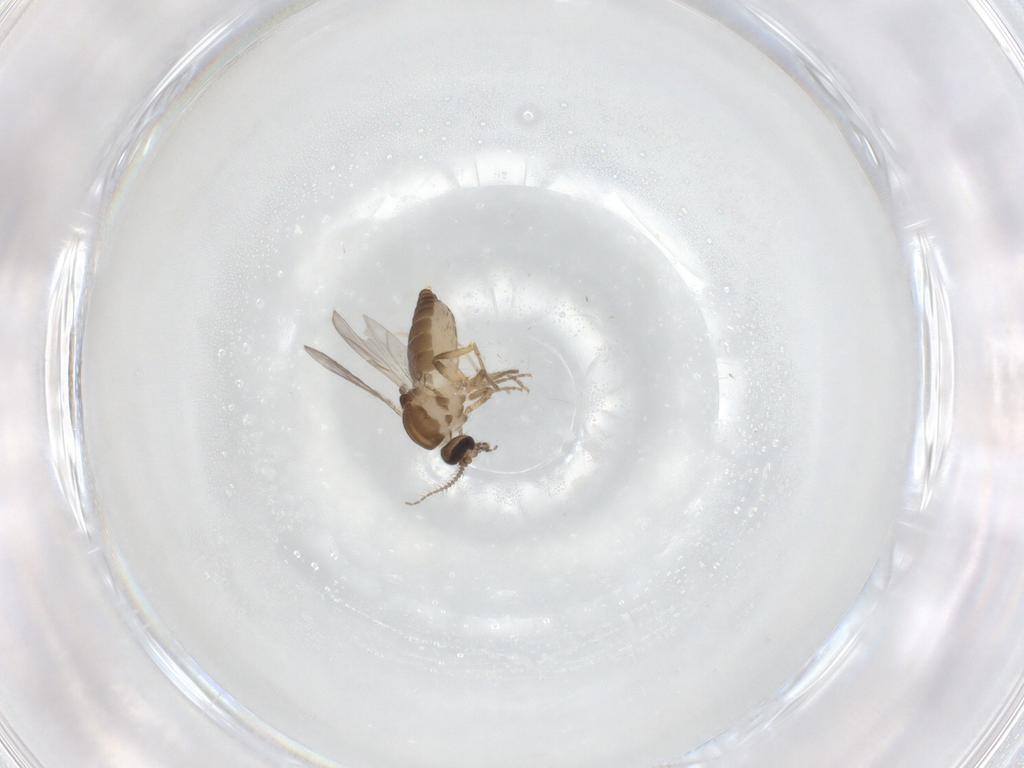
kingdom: Animalia
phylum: Arthropoda
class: Insecta
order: Diptera
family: Ceratopogonidae
